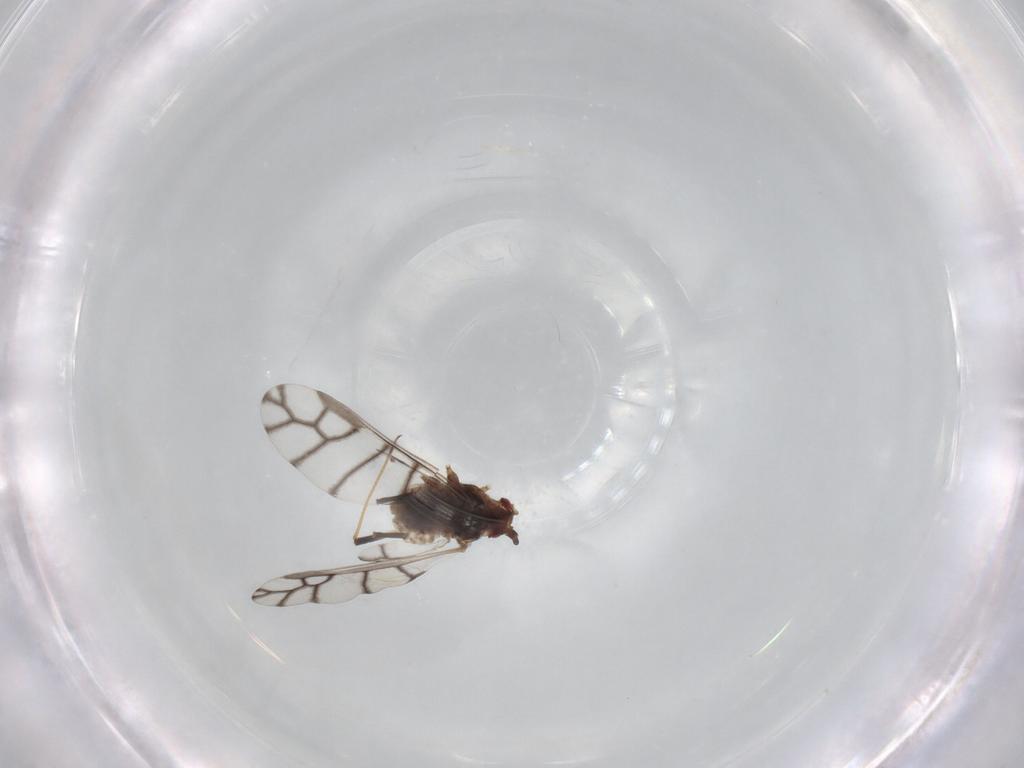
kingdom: Animalia
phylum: Arthropoda
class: Insecta
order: Hemiptera
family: Aphididae
